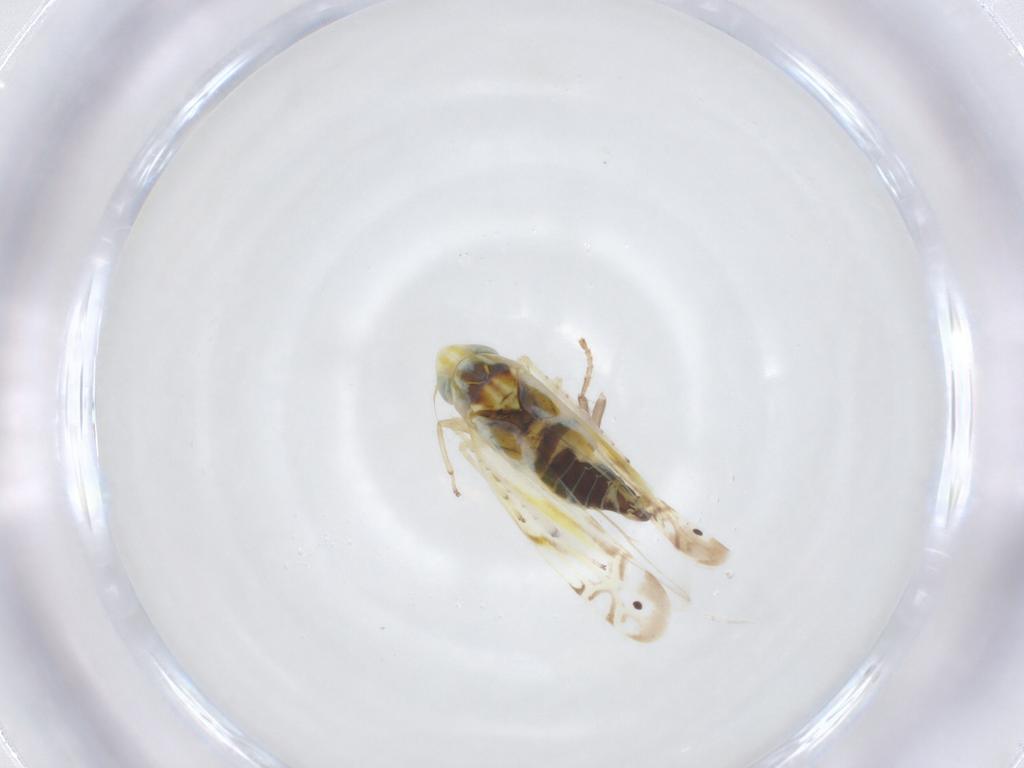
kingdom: Animalia
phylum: Arthropoda
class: Insecta
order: Hemiptera
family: Cicadellidae
